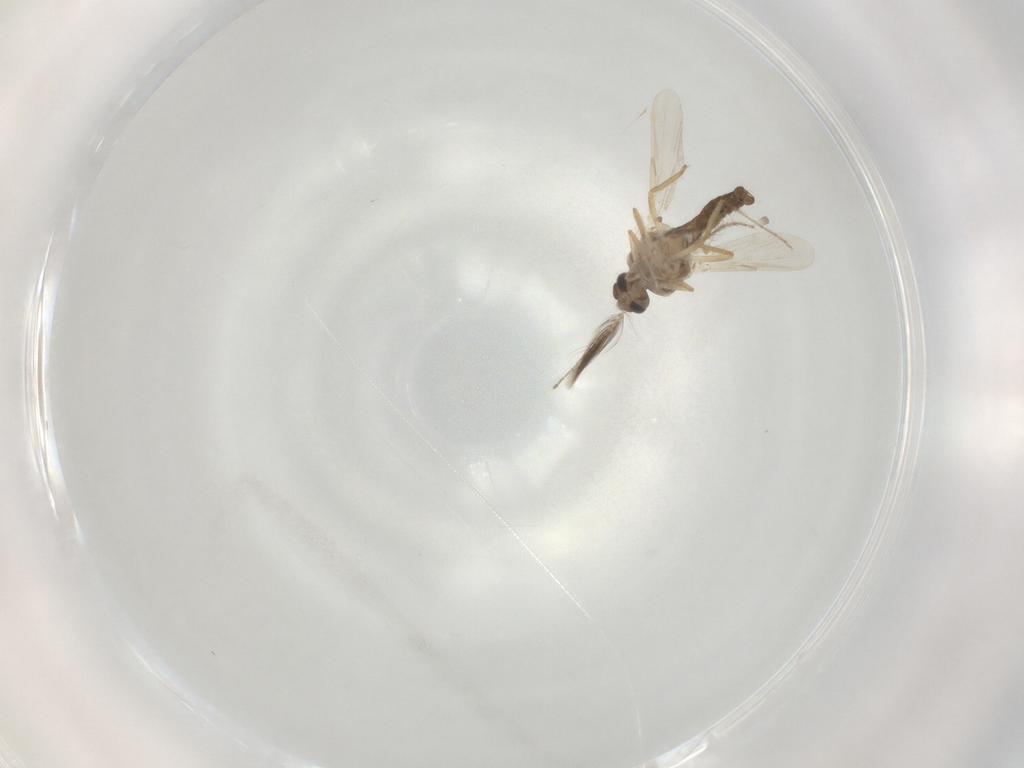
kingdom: Animalia
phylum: Arthropoda
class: Insecta
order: Diptera
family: Ceratopogonidae
